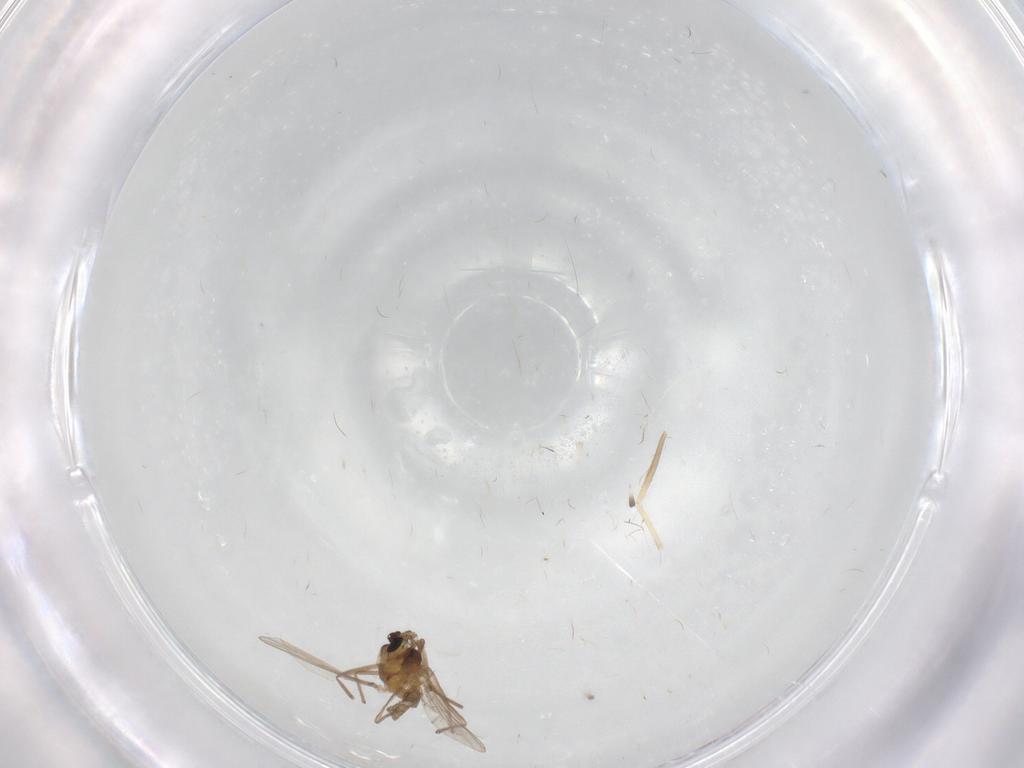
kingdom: Animalia
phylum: Arthropoda
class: Insecta
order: Diptera
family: Chironomidae
